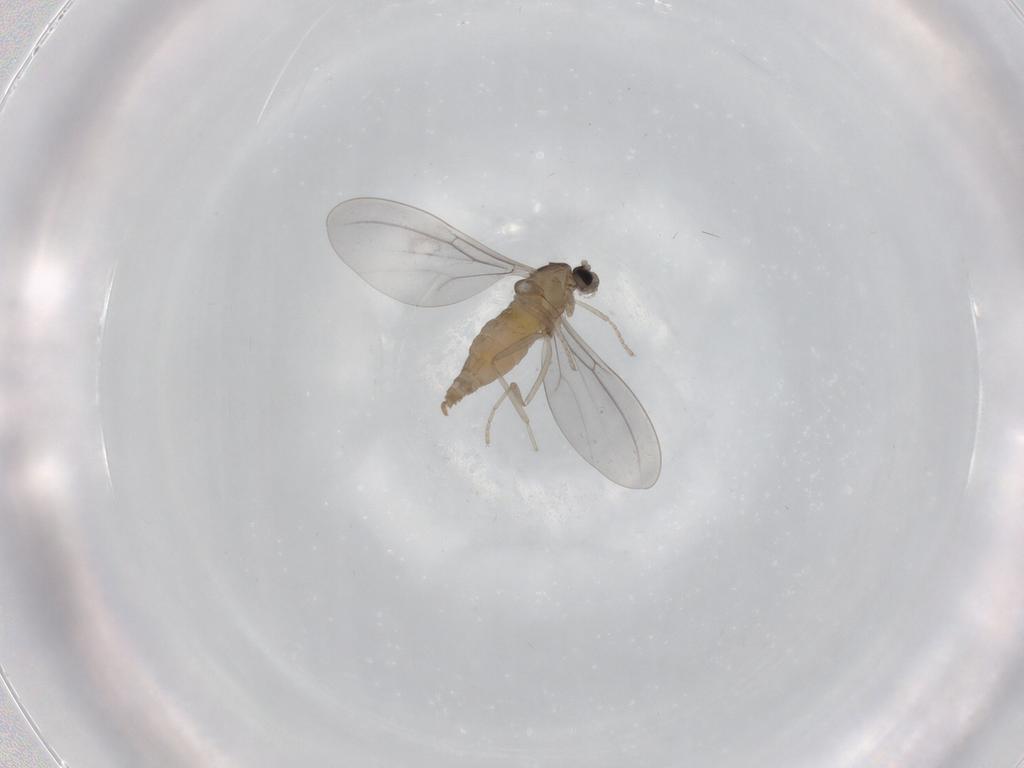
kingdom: Animalia
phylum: Arthropoda
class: Insecta
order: Diptera
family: Cecidomyiidae
